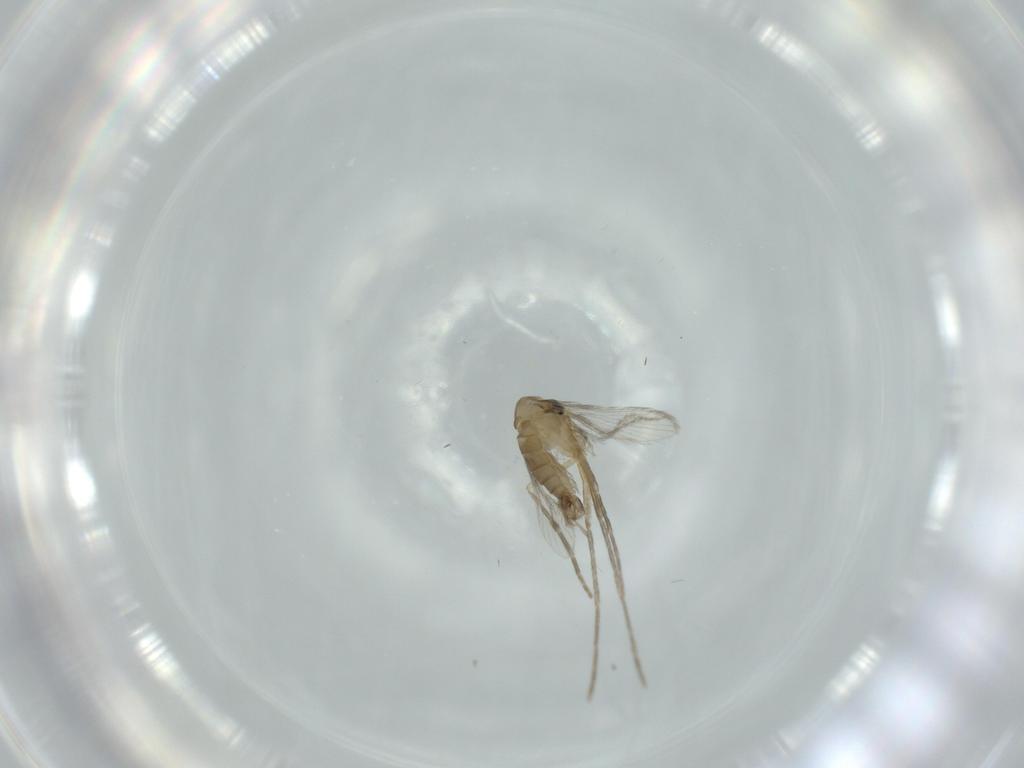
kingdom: Animalia
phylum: Arthropoda
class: Insecta
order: Diptera
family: Psychodidae
